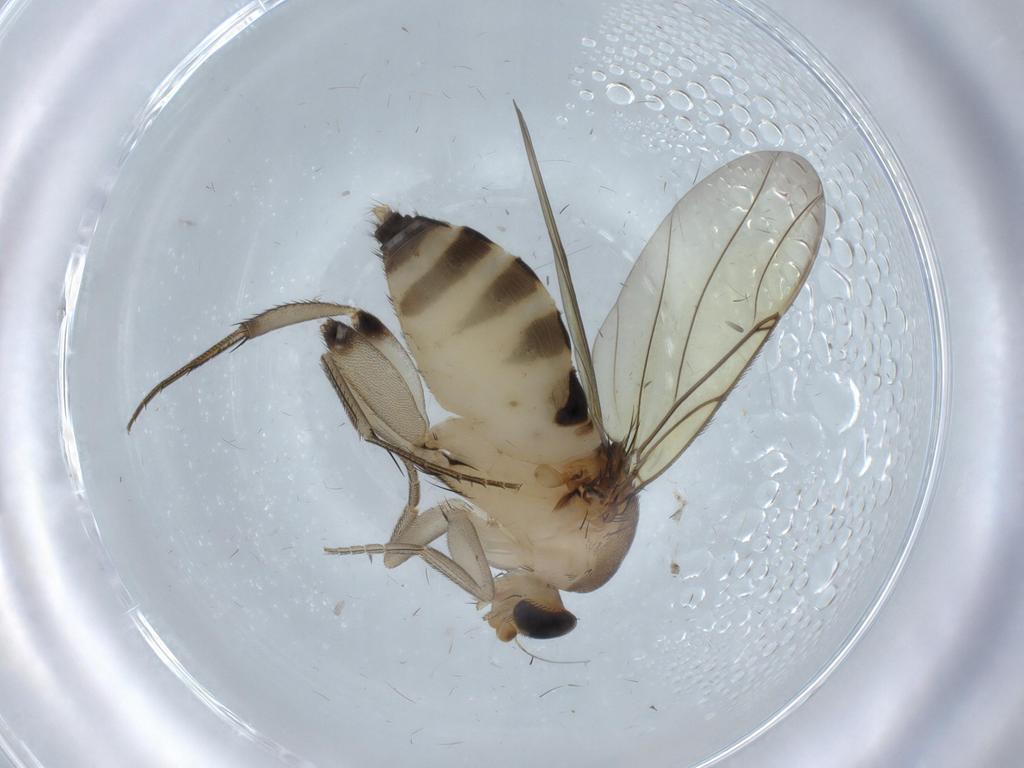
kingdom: Animalia
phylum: Arthropoda
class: Insecta
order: Diptera
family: Phoridae
